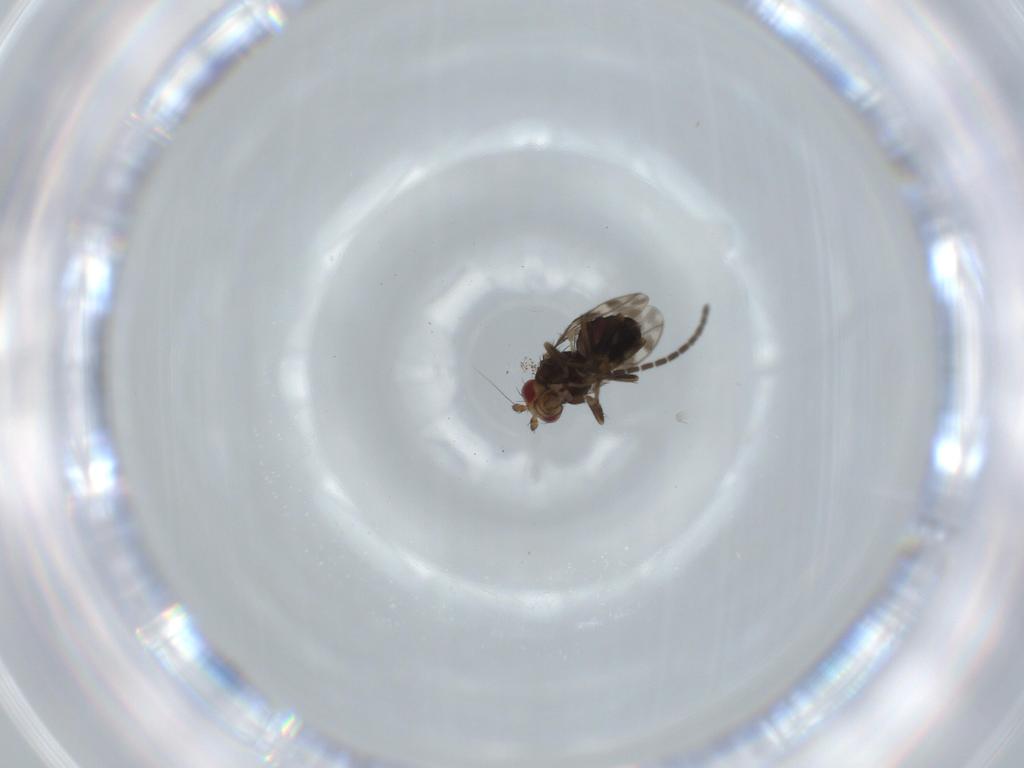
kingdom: Animalia
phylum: Arthropoda
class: Insecta
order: Diptera
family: Sphaeroceridae
